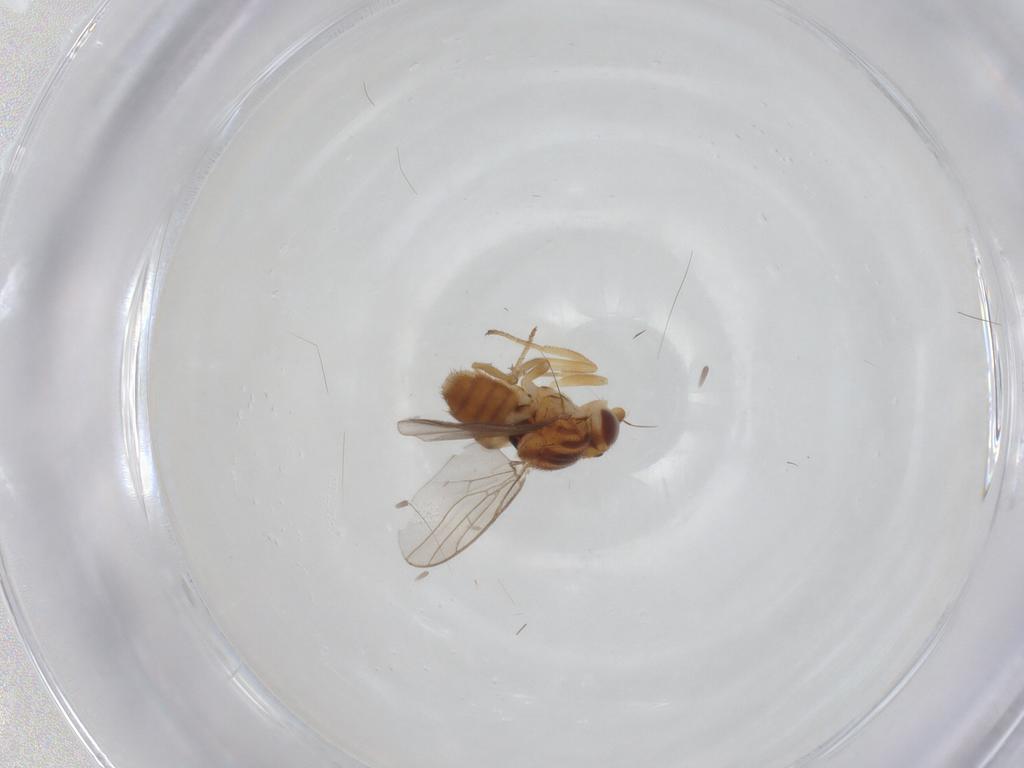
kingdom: Animalia
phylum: Arthropoda
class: Insecta
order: Diptera
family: Chloropidae
